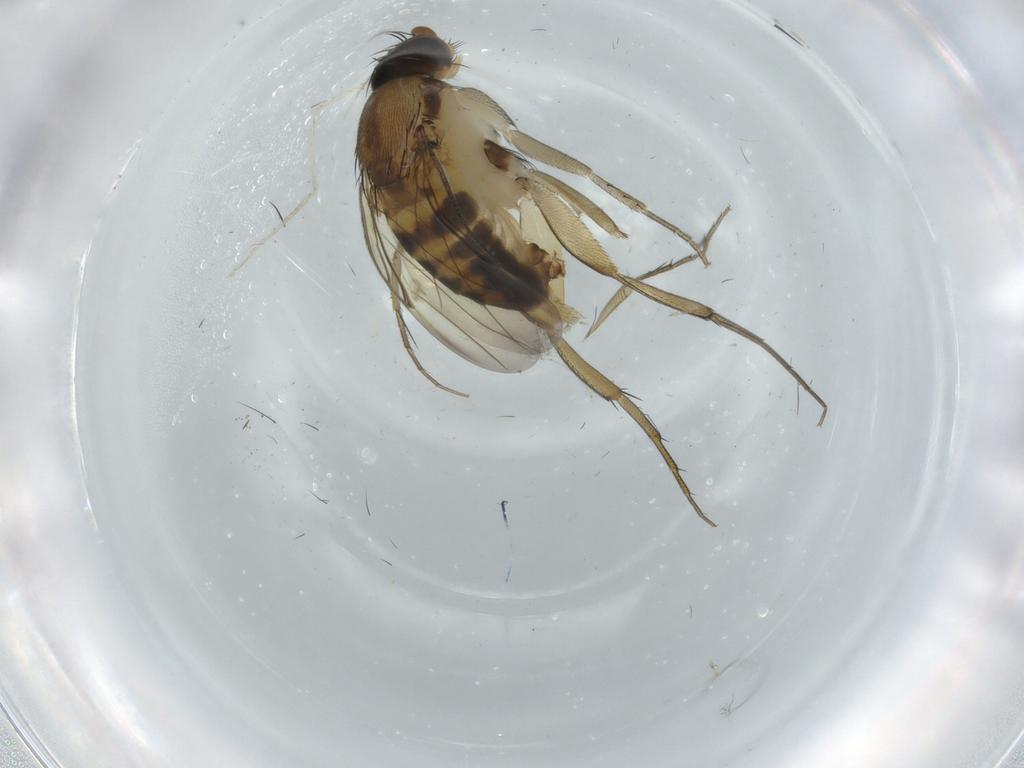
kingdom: Animalia
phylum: Arthropoda
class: Insecta
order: Diptera
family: Phoridae
